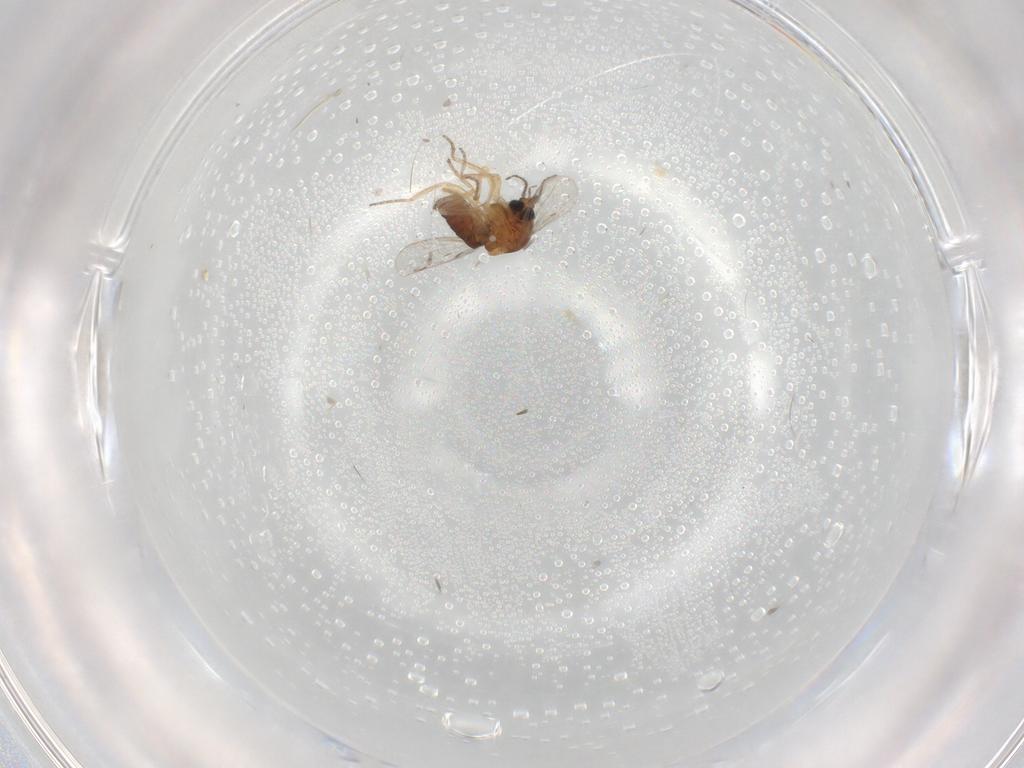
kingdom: Animalia
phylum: Arthropoda
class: Insecta
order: Diptera
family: Ceratopogonidae
